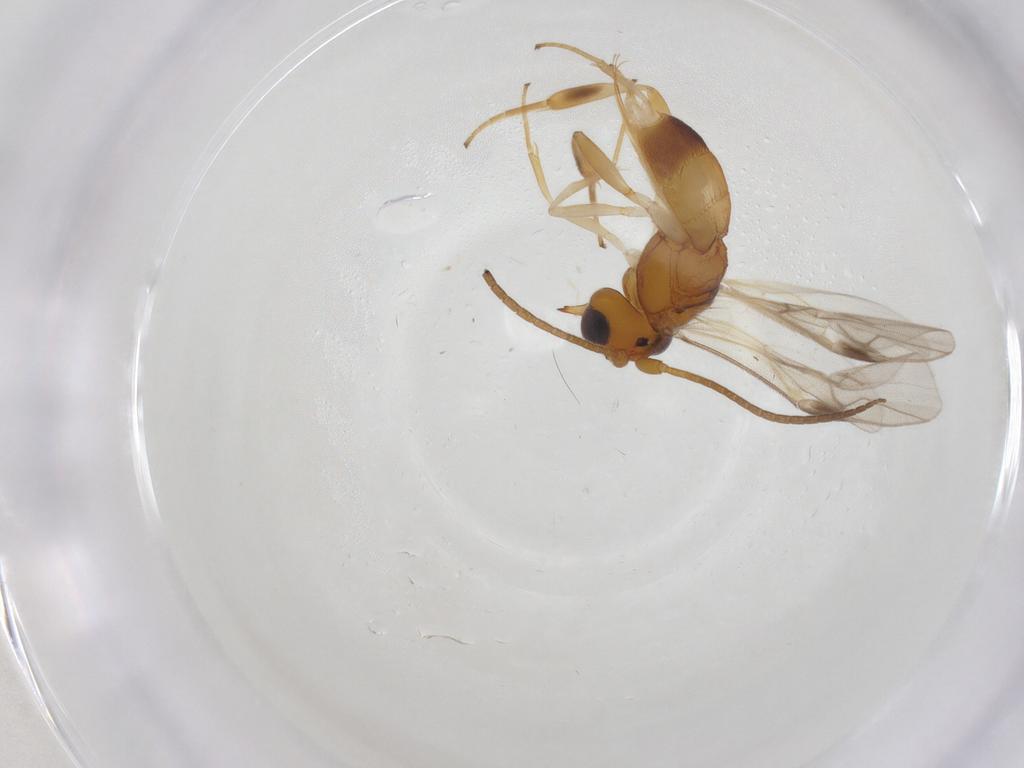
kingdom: Animalia
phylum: Arthropoda
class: Insecta
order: Hymenoptera
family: Braconidae
